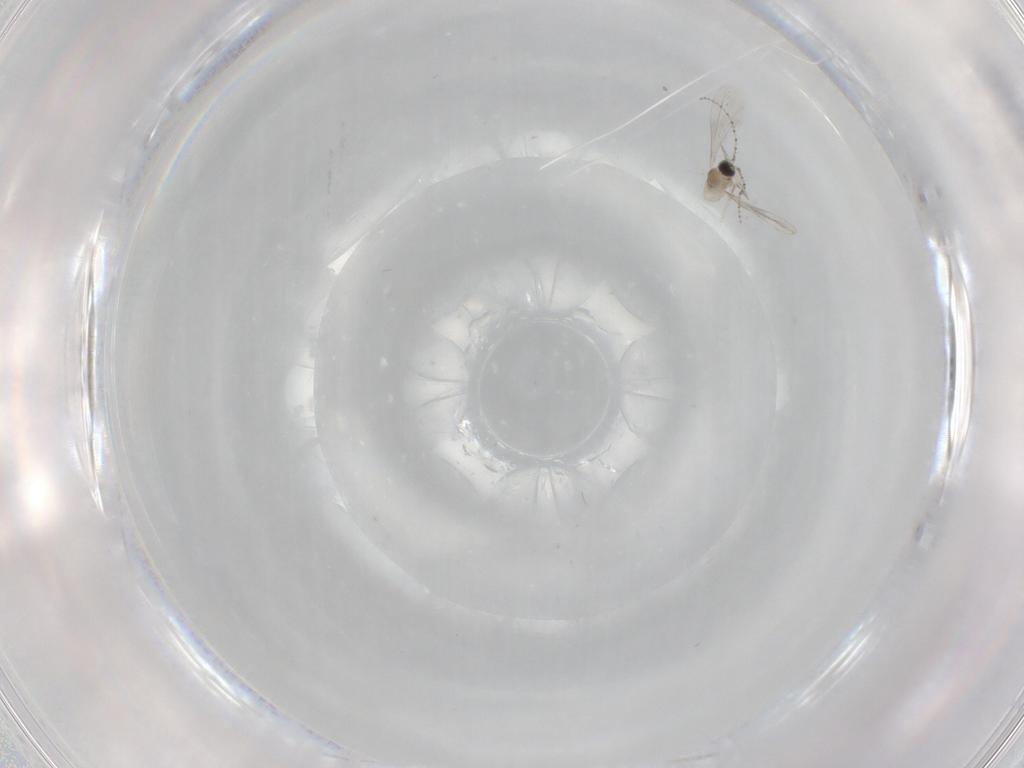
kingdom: Animalia
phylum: Arthropoda
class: Insecta
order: Diptera
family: Cecidomyiidae
